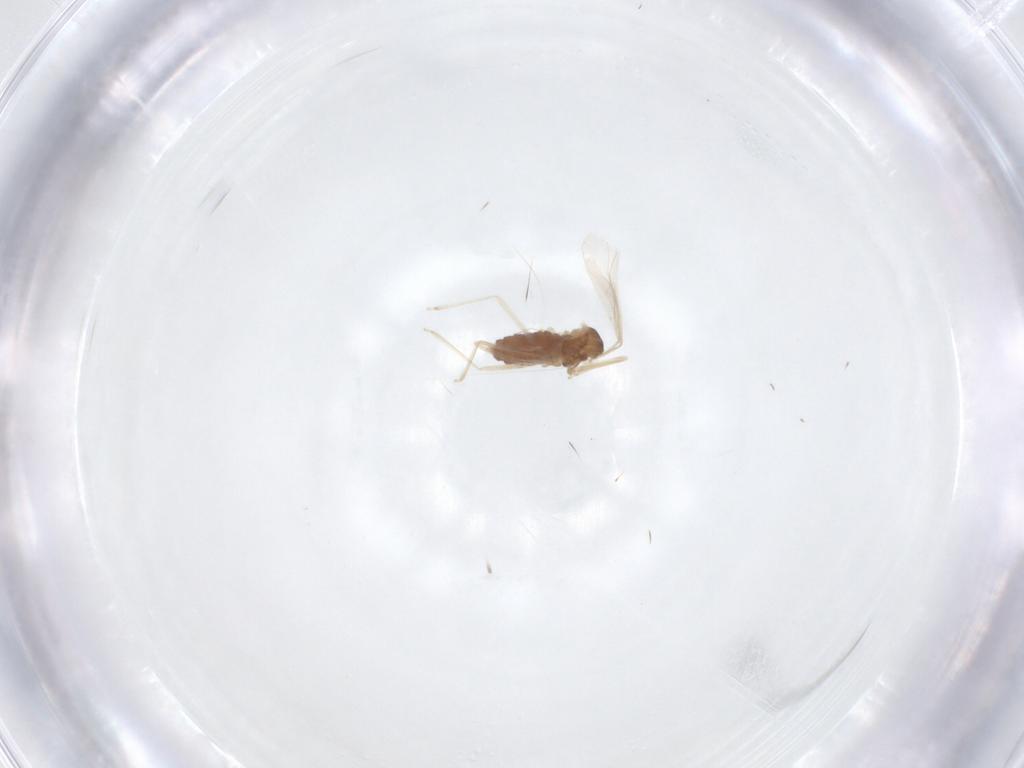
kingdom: Animalia
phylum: Arthropoda
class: Insecta
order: Diptera
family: Cecidomyiidae
